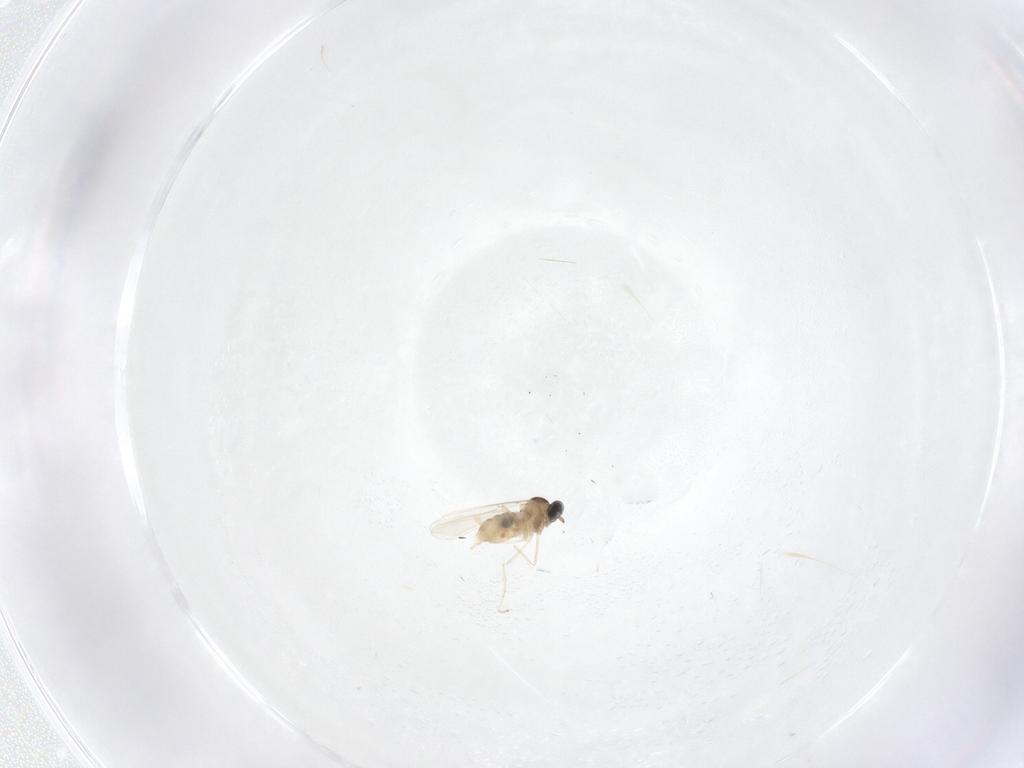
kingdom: Animalia
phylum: Arthropoda
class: Insecta
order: Diptera
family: Cecidomyiidae
